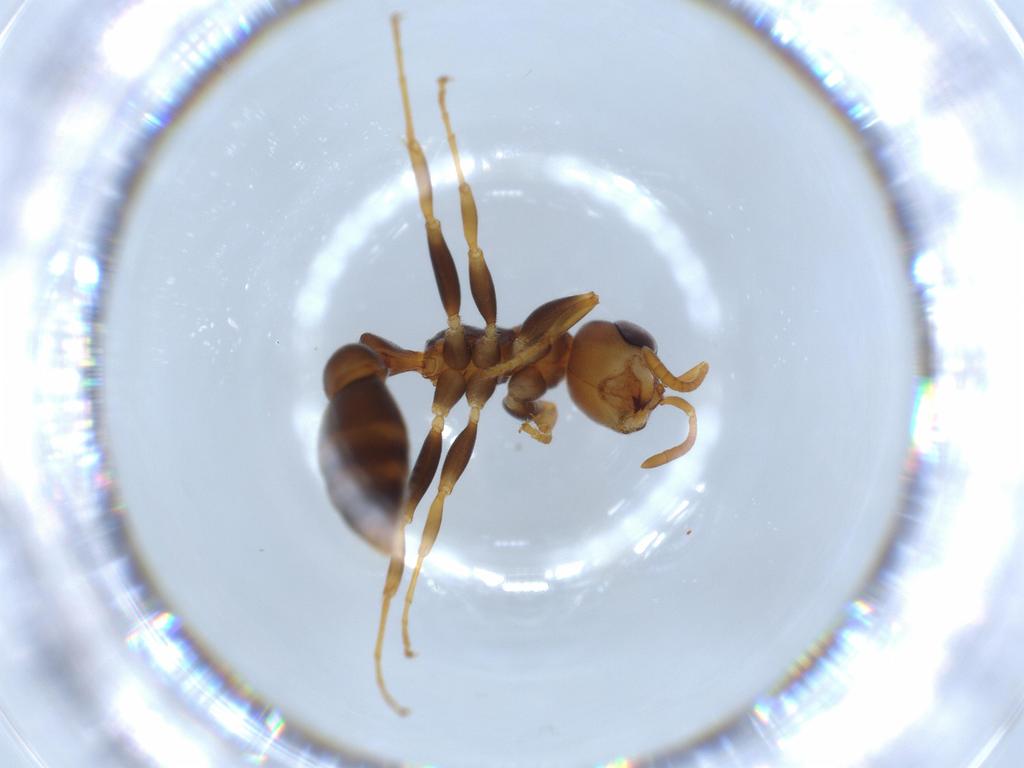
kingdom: Animalia
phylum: Arthropoda
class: Insecta
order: Hymenoptera
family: Formicidae
